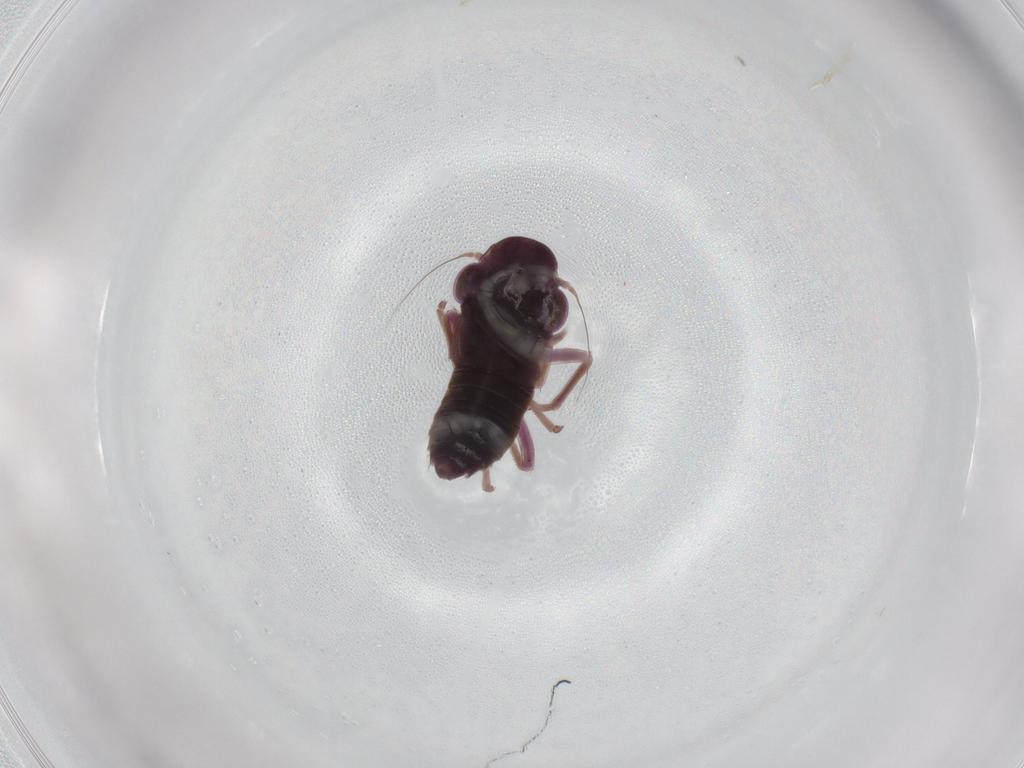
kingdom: Animalia
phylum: Arthropoda
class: Insecta
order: Hemiptera
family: Cicadellidae
